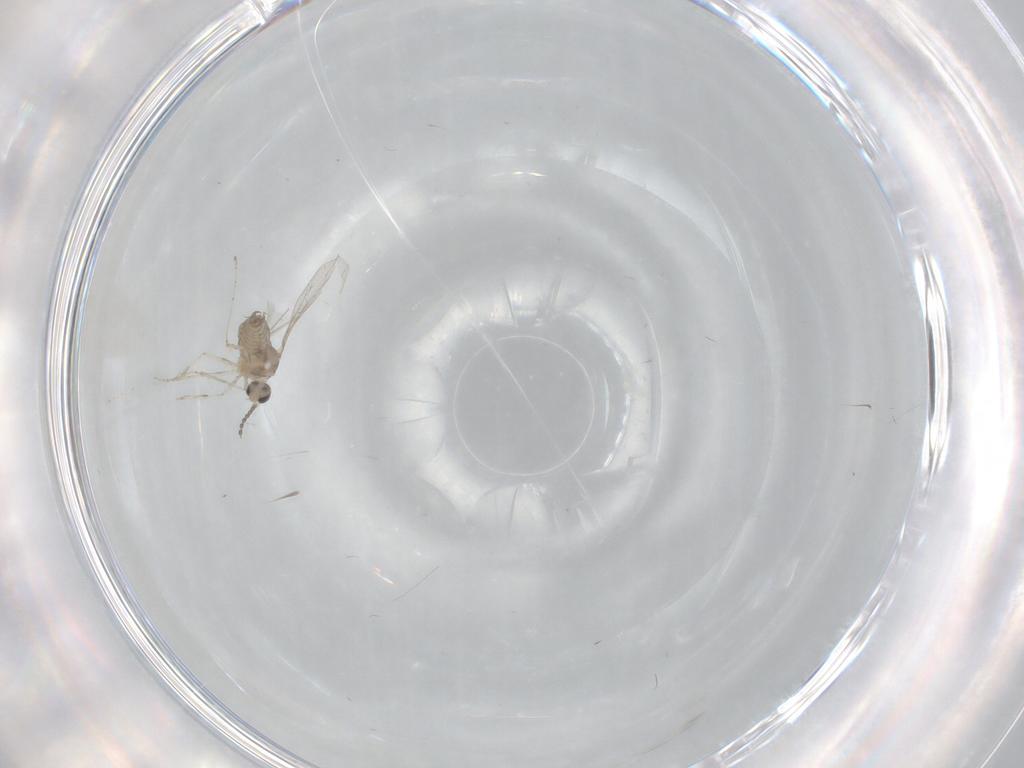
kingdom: Animalia
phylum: Arthropoda
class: Insecta
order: Diptera
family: Cecidomyiidae
